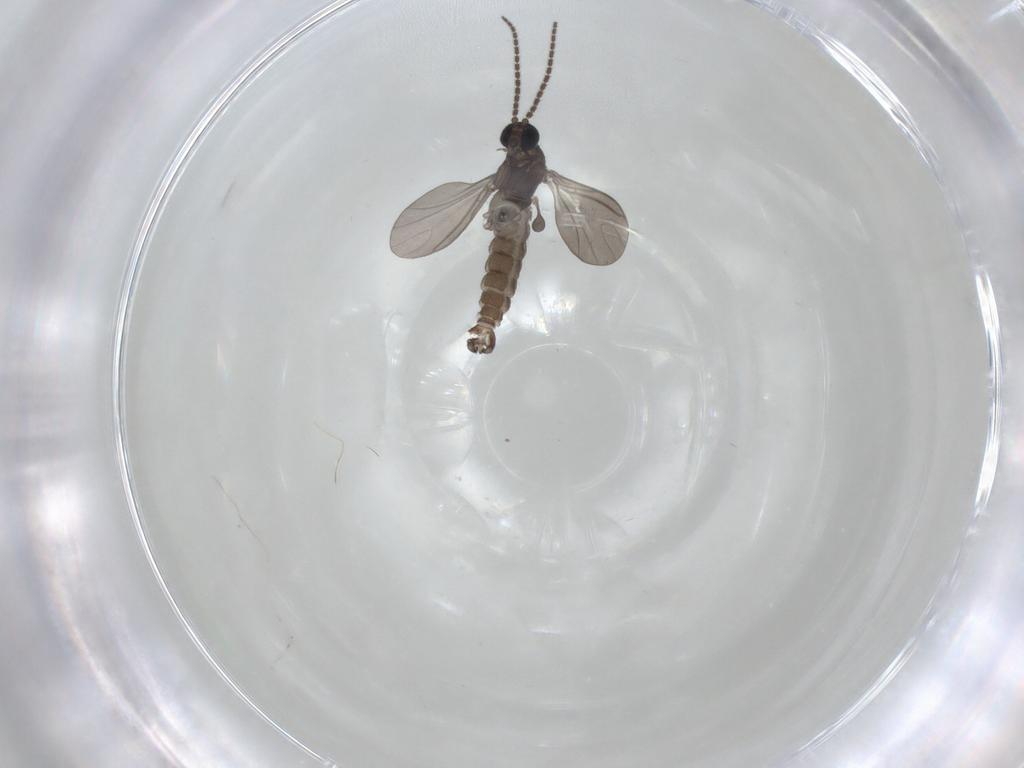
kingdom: Animalia
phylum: Arthropoda
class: Insecta
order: Diptera
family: Sciaridae
